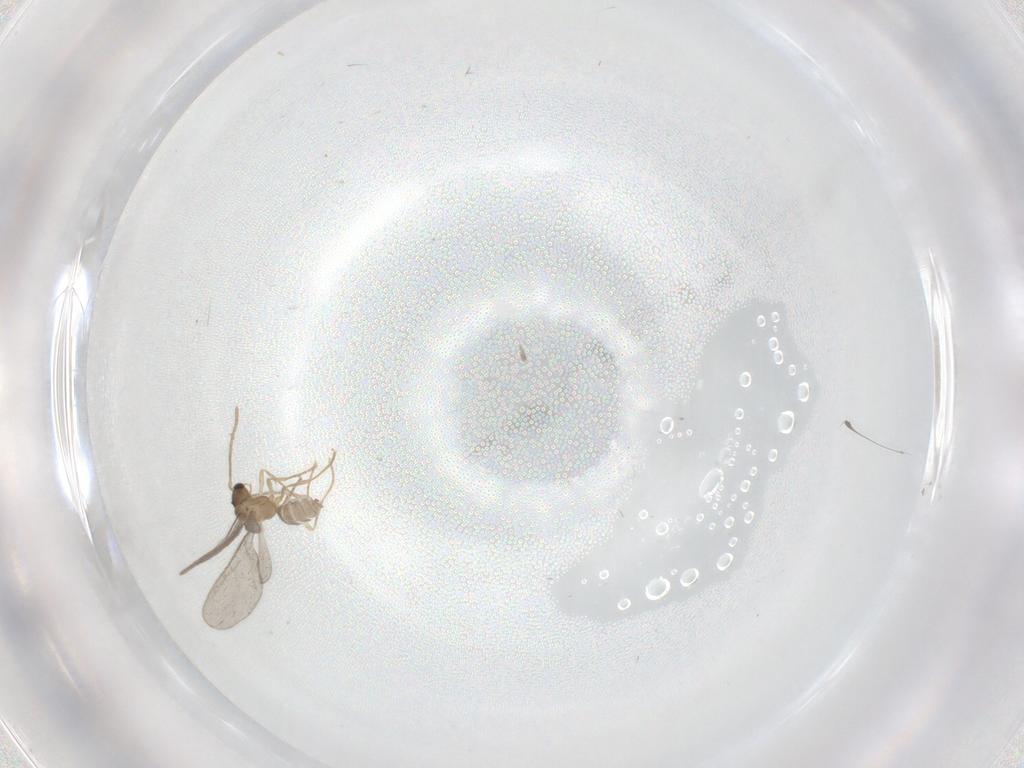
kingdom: Animalia
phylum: Arthropoda
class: Insecta
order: Hymenoptera
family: Formicidae
